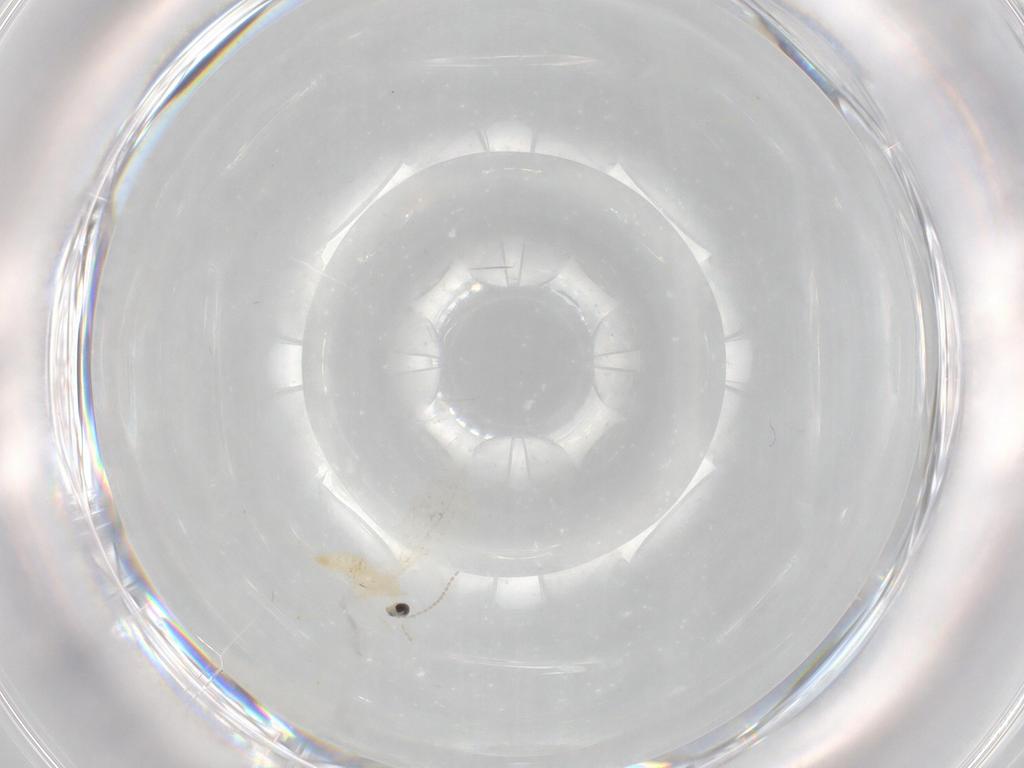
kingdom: Animalia
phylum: Arthropoda
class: Insecta
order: Diptera
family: Cecidomyiidae
